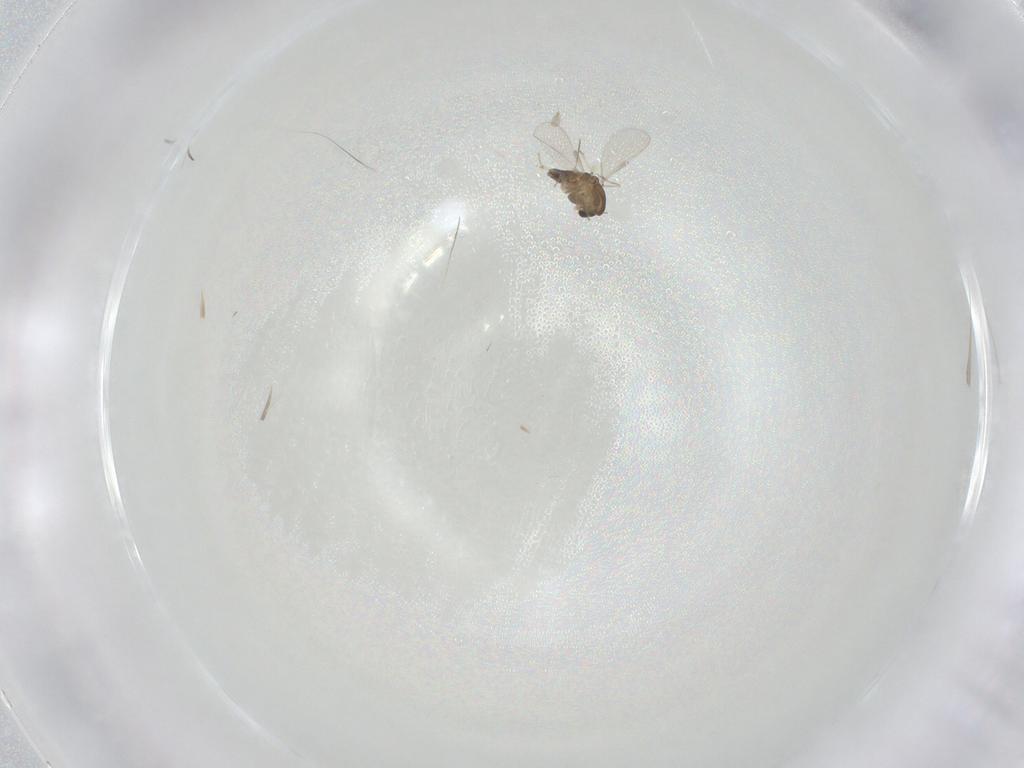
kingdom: Animalia
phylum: Arthropoda
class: Insecta
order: Diptera
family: Chironomidae
